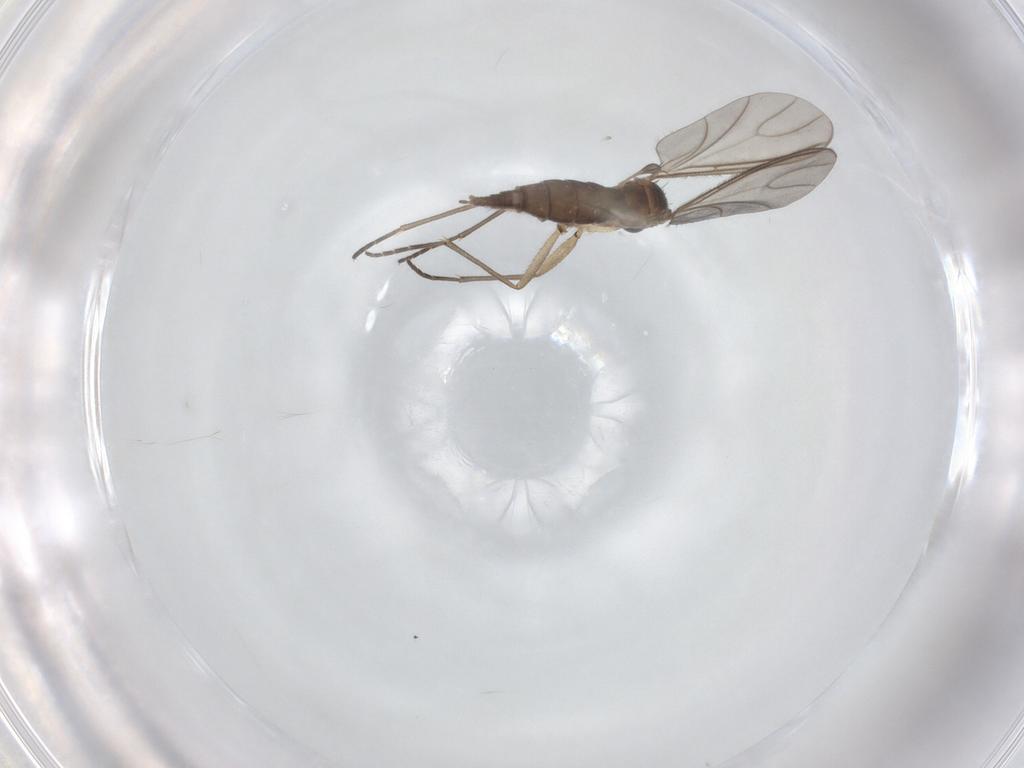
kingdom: Animalia
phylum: Arthropoda
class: Insecta
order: Diptera
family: Sciaridae
